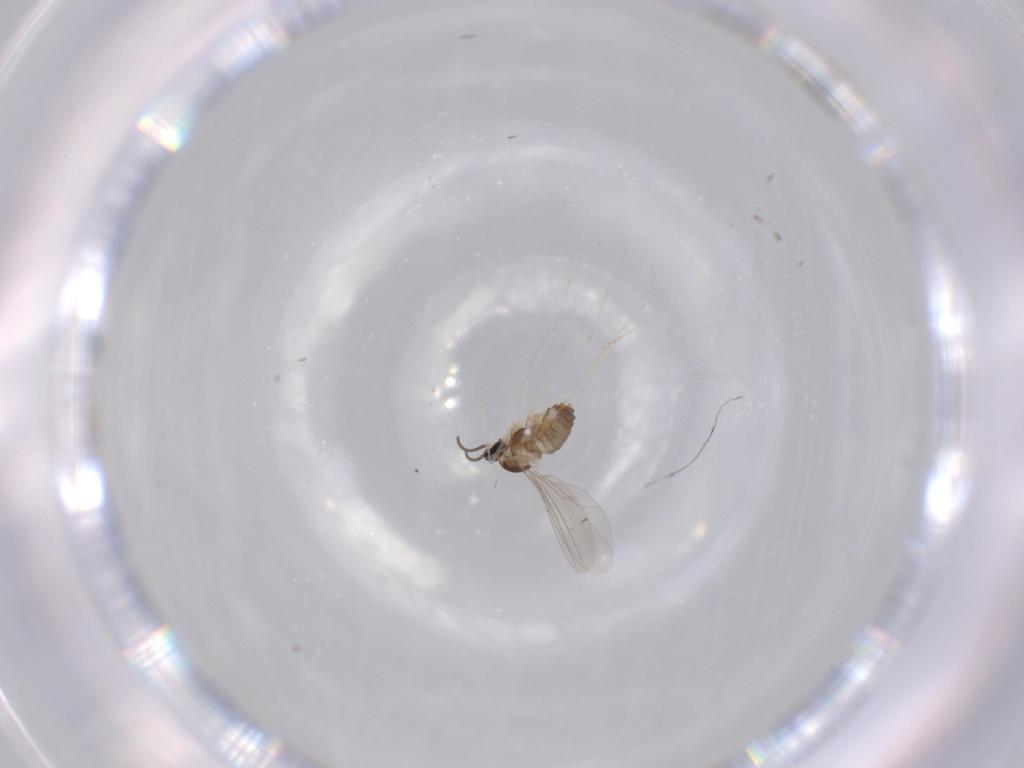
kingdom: Animalia
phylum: Arthropoda
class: Insecta
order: Diptera
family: Cecidomyiidae
